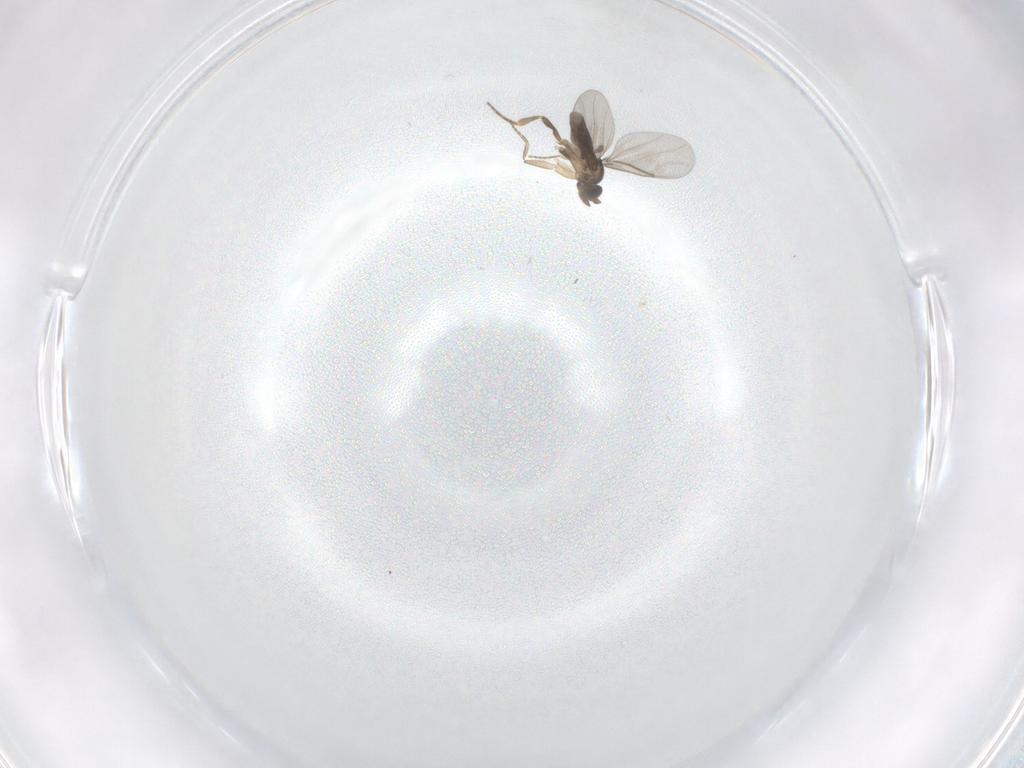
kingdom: Animalia
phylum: Arthropoda
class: Insecta
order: Diptera
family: Psychodidae
